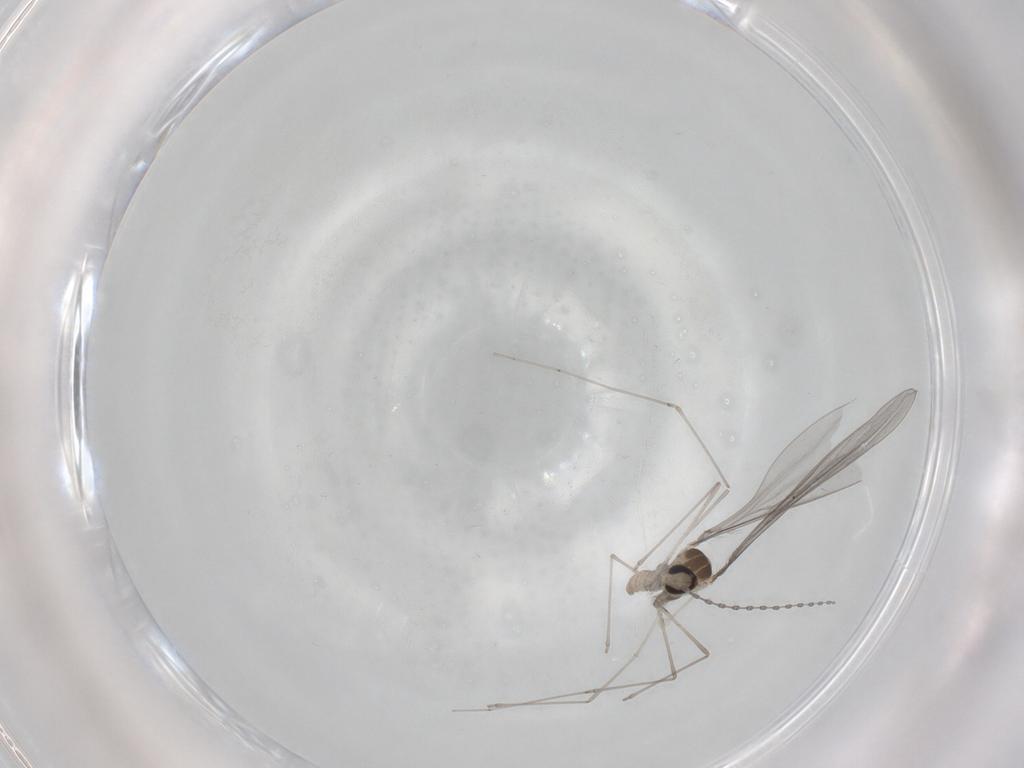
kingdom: Animalia
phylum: Arthropoda
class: Insecta
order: Diptera
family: Cecidomyiidae
